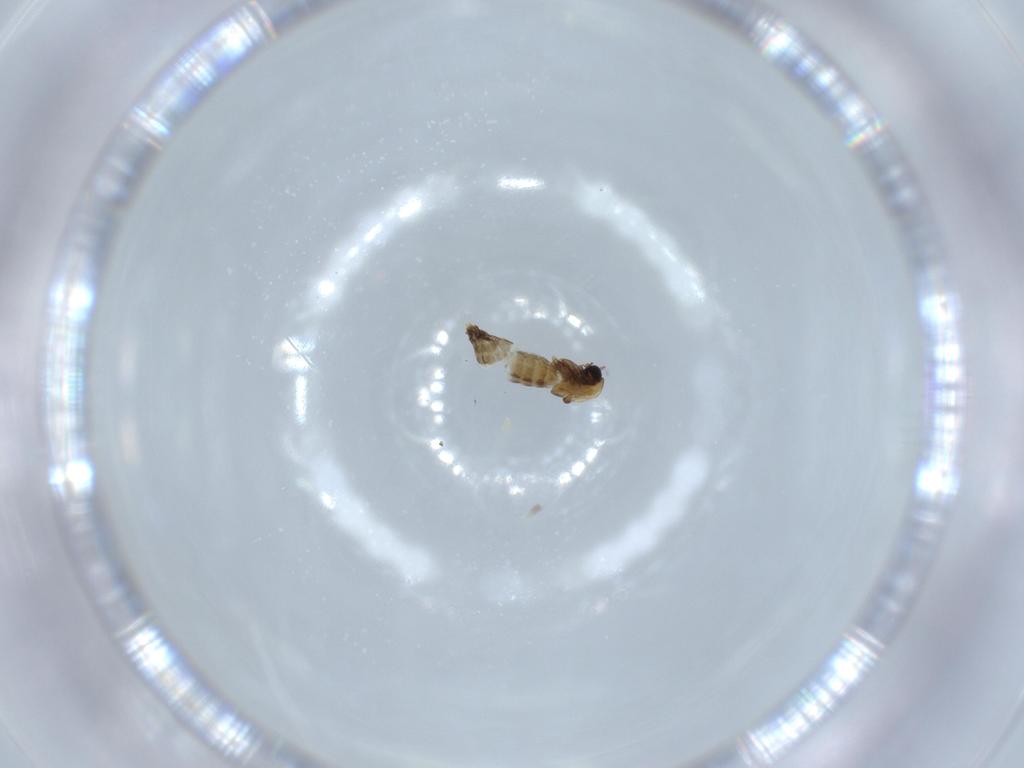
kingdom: Animalia
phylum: Arthropoda
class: Insecta
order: Diptera
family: Chironomidae
